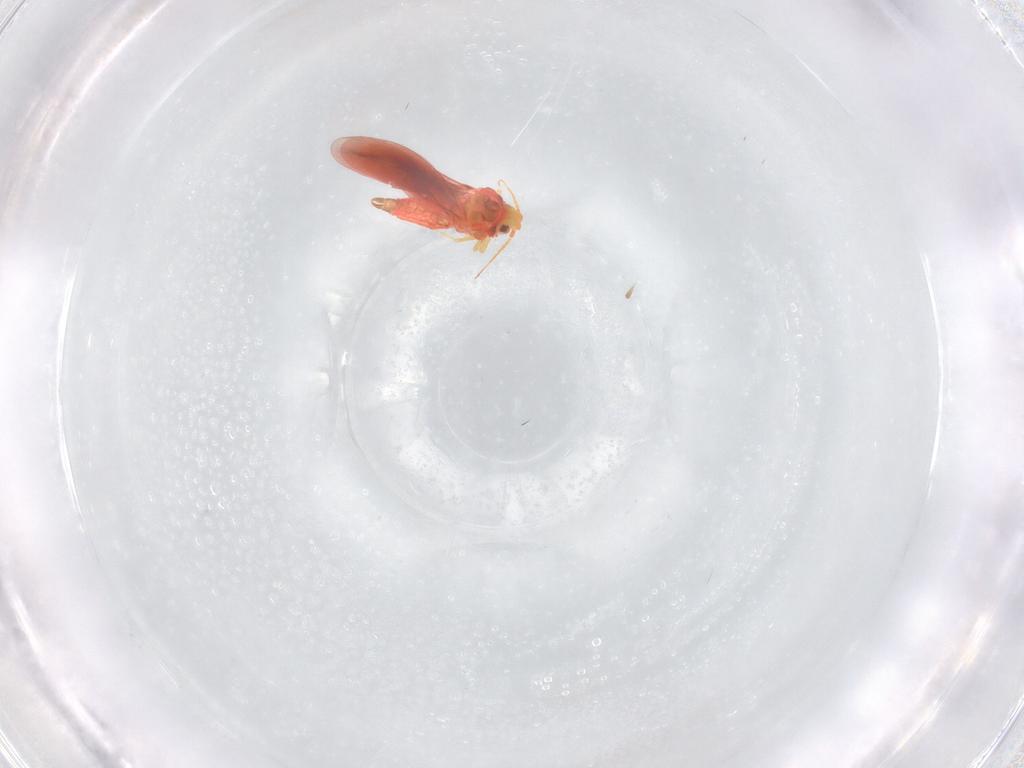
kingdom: Animalia
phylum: Arthropoda
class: Insecta
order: Hemiptera
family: Aleyrodidae
